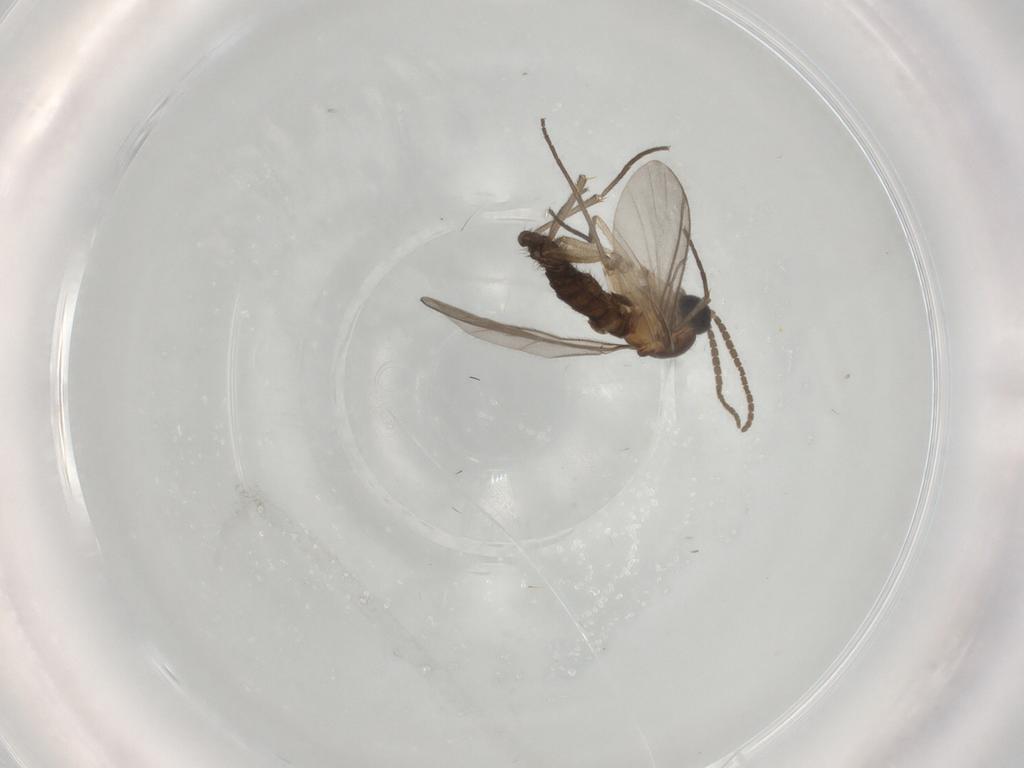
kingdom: Animalia
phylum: Arthropoda
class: Insecta
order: Diptera
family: Sciaridae
